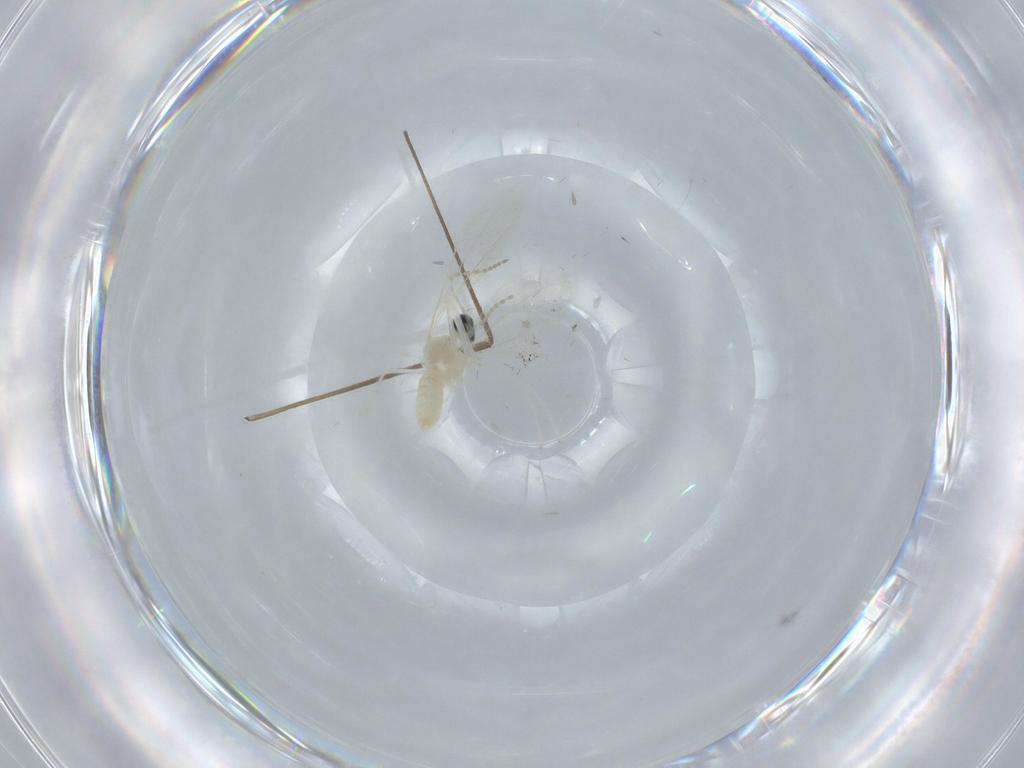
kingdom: Animalia
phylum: Arthropoda
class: Insecta
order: Diptera
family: Cecidomyiidae
